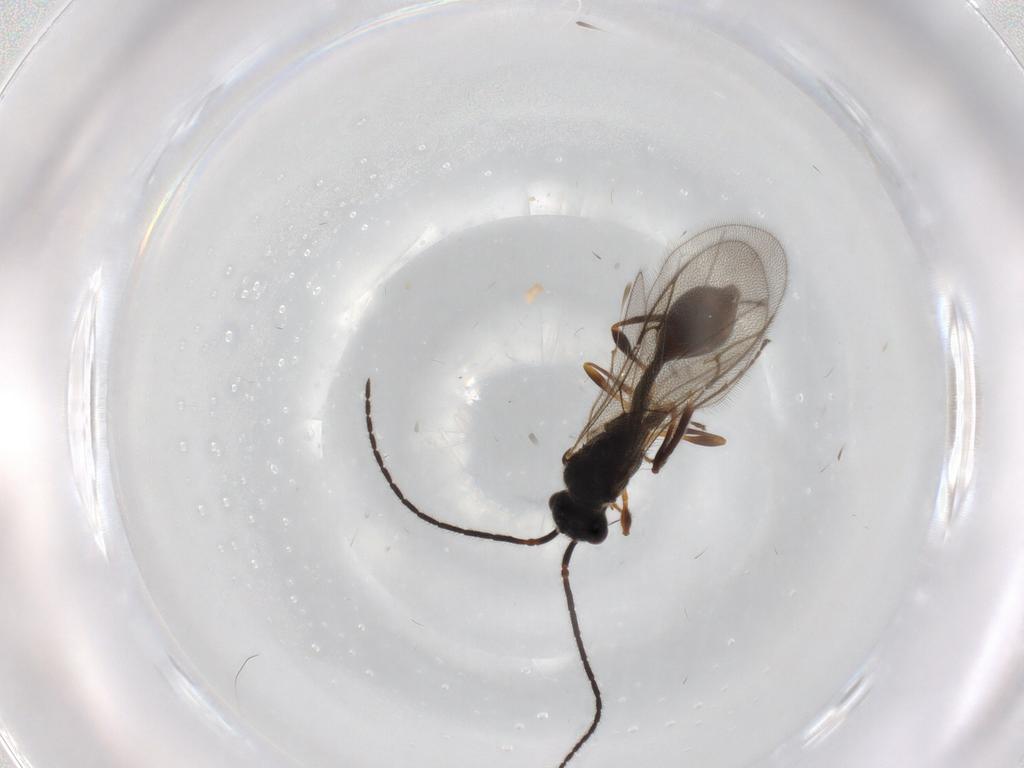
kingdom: Animalia
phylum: Arthropoda
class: Insecta
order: Hymenoptera
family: Diapriidae
